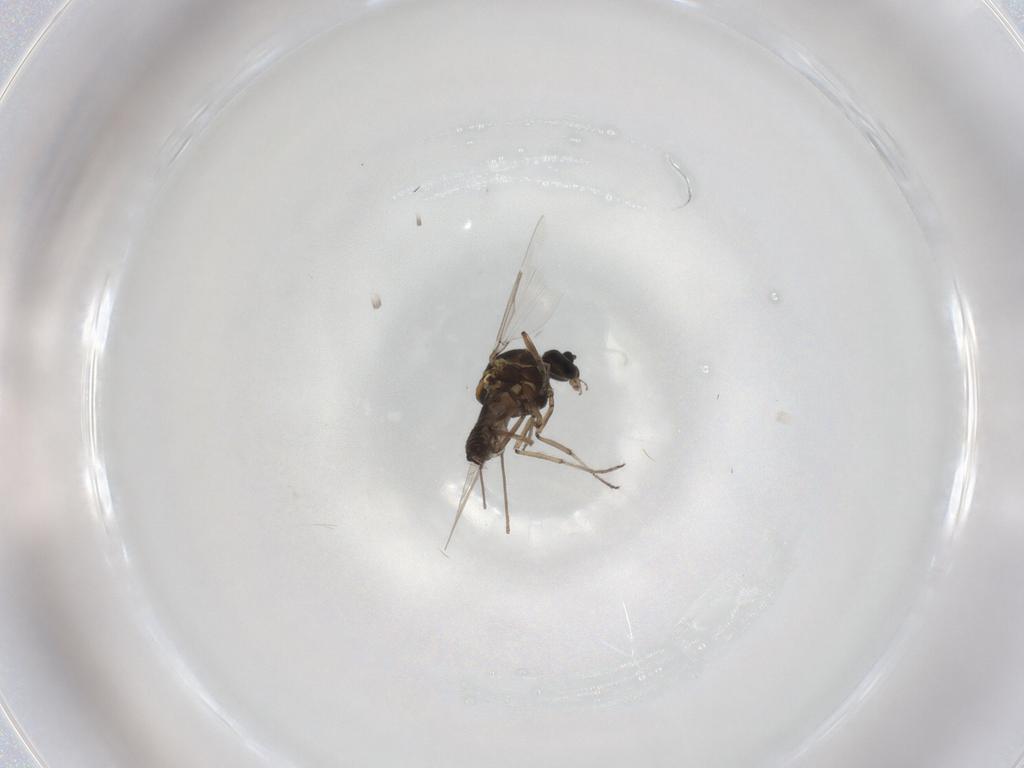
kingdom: Animalia
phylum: Arthropoda
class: Insecta
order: Diptera
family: Ceratopogonidae
